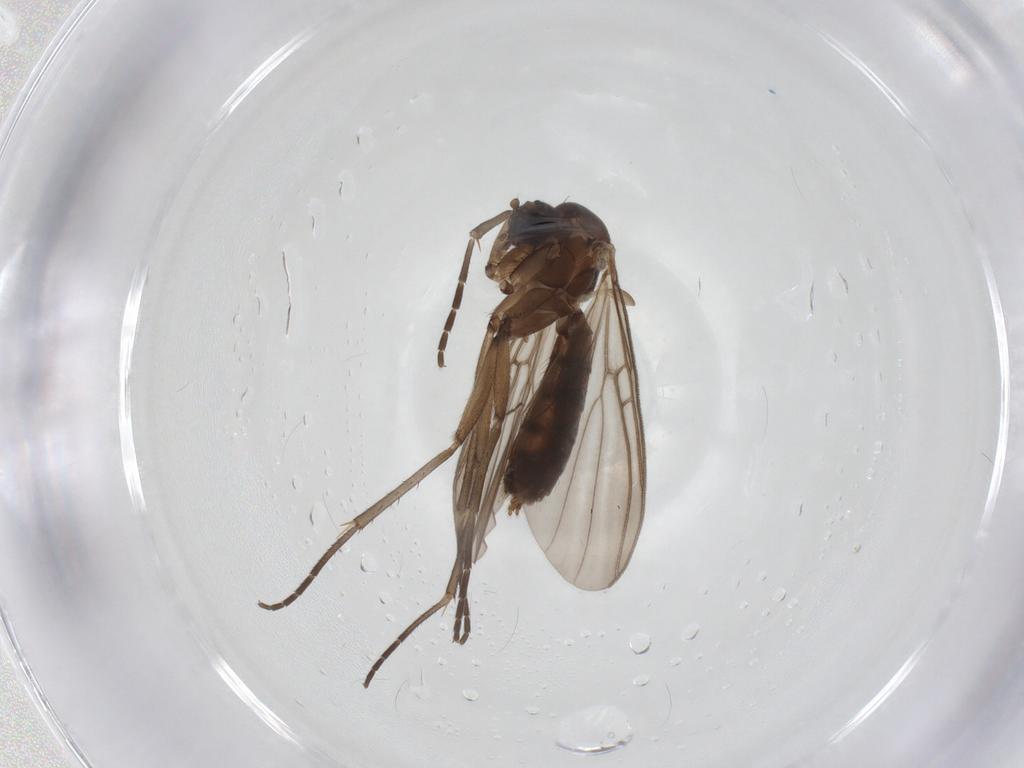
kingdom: Animalia
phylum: Arthropoda
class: Insecta
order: Diptera
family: Mycetophilidae
